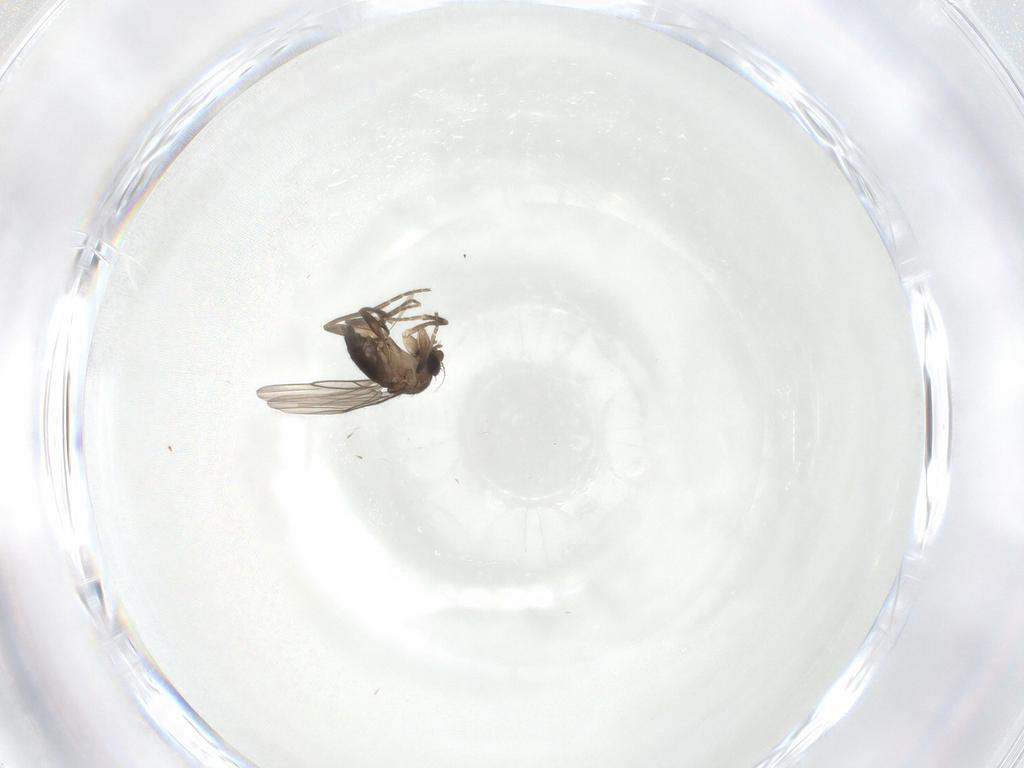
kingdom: Animalia
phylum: Arthropoda
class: Insecta
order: Diptera
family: Phoridae
